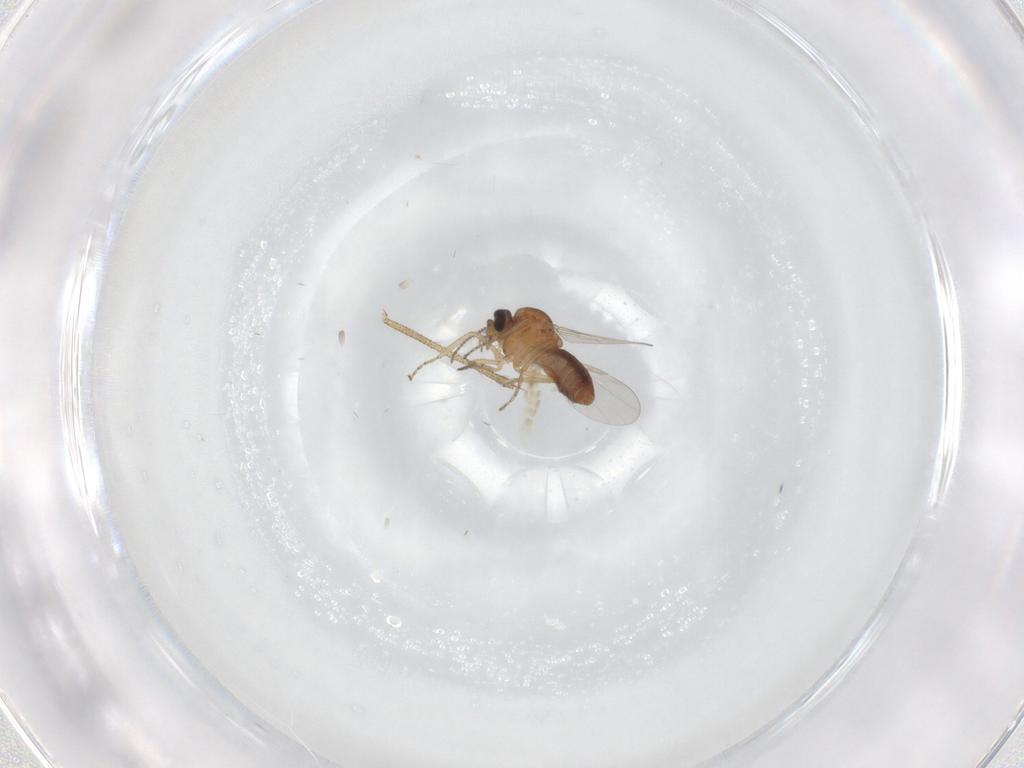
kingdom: Animalia
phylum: Arthropoda
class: Insecta
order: Diptera
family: Ceratopogonidae
